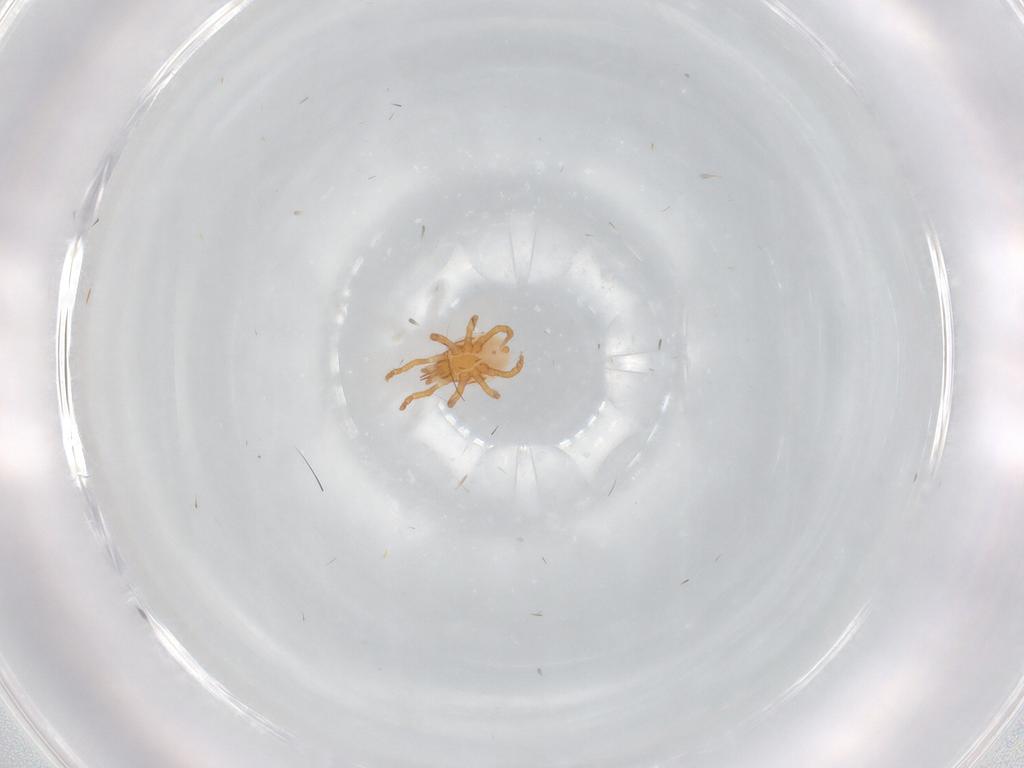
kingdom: Animalia
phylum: Arthropoda
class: Arachnida
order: Mesostigmata
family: Parasitidae
